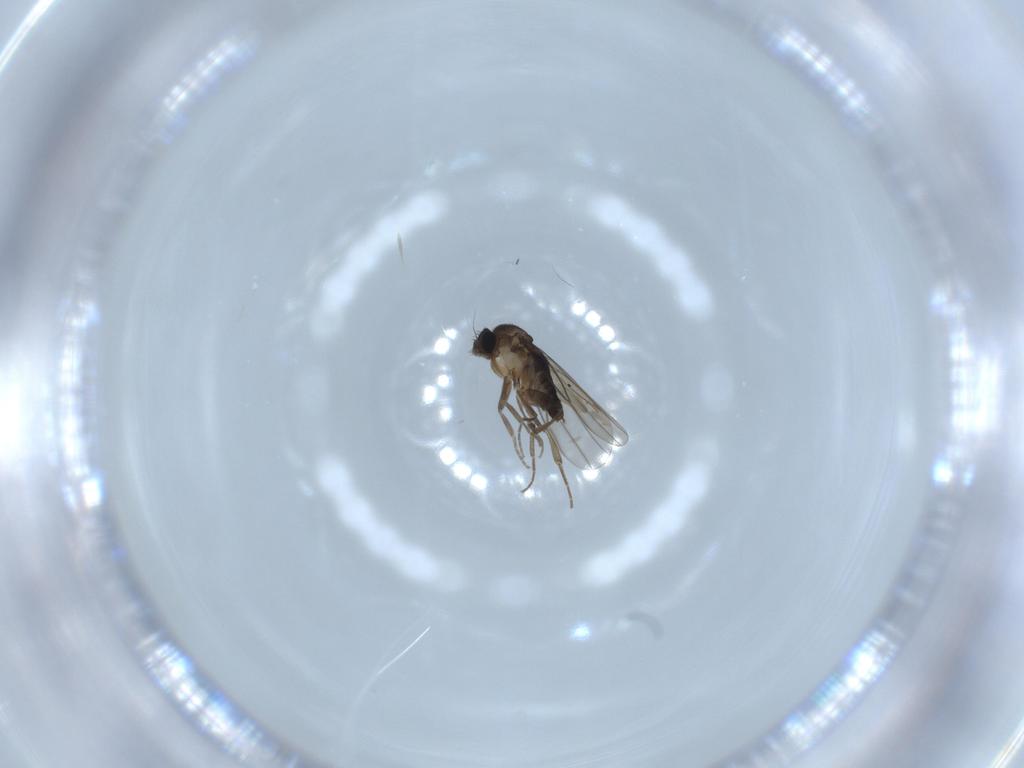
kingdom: Animalia
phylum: Arthropoda
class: Insecta
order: Diptera
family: Phoridae
